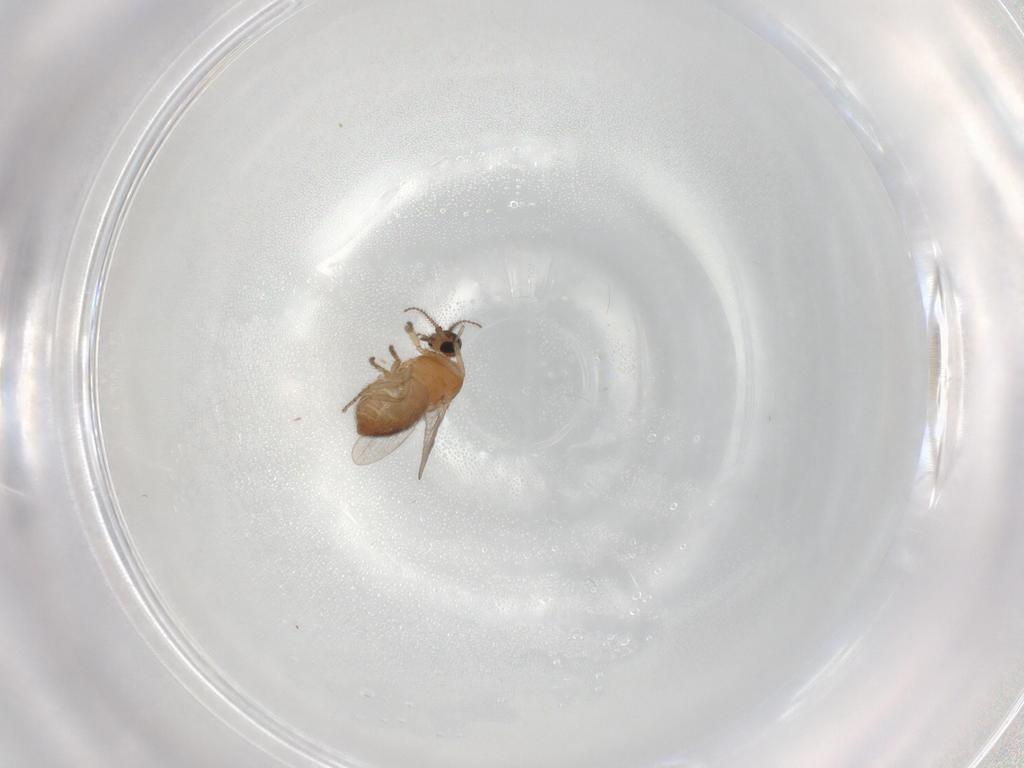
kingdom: Animalia
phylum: Arthropoda
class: Insecta
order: Diptera
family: Ceratopogonidae
